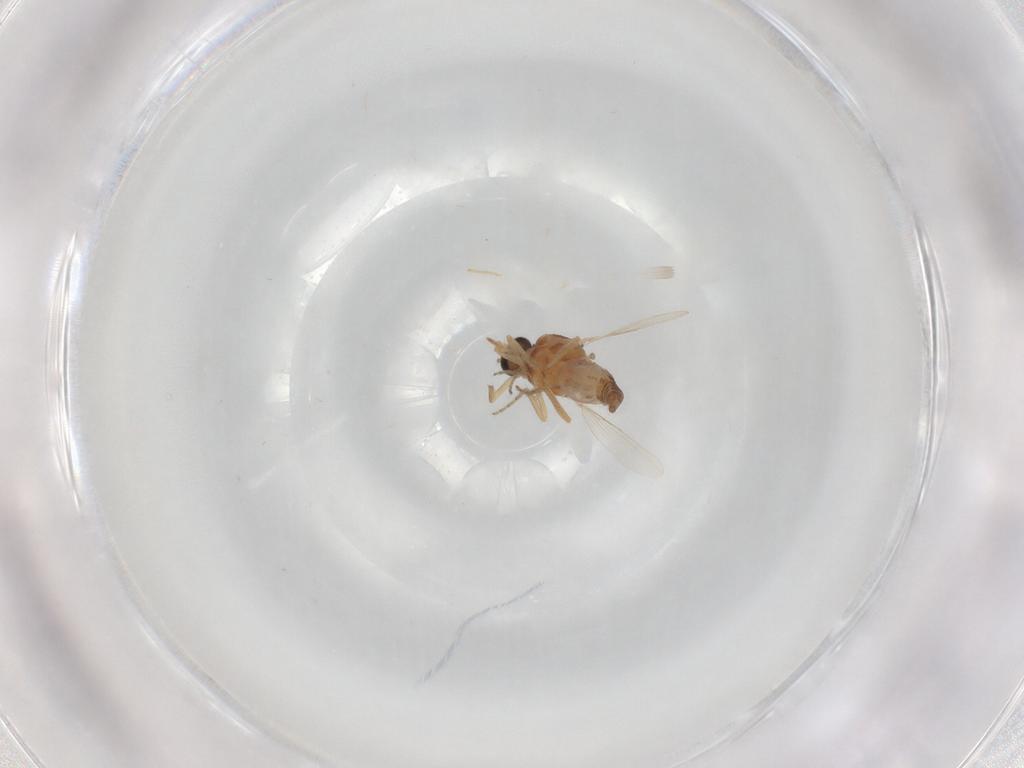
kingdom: Animalia
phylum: Arthropoda
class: Insecta
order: Diptera
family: Ceratopogonidae
